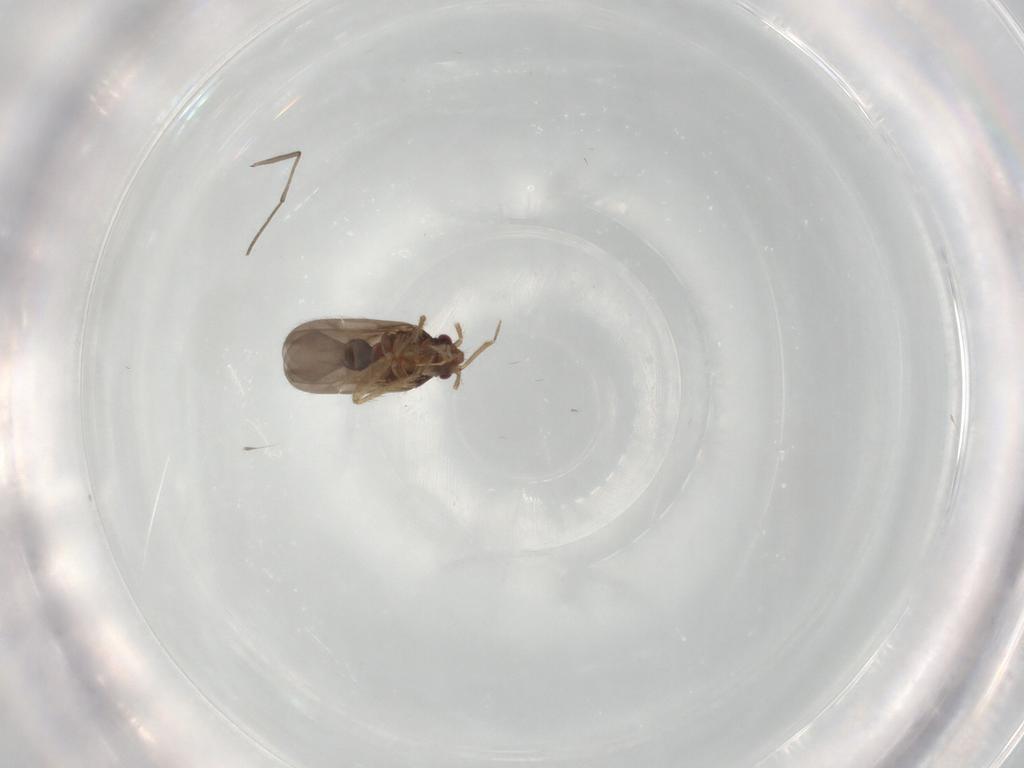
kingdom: Animalia
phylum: Arthropoda
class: Insecta
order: Hemiptera
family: Ceratocombidae
